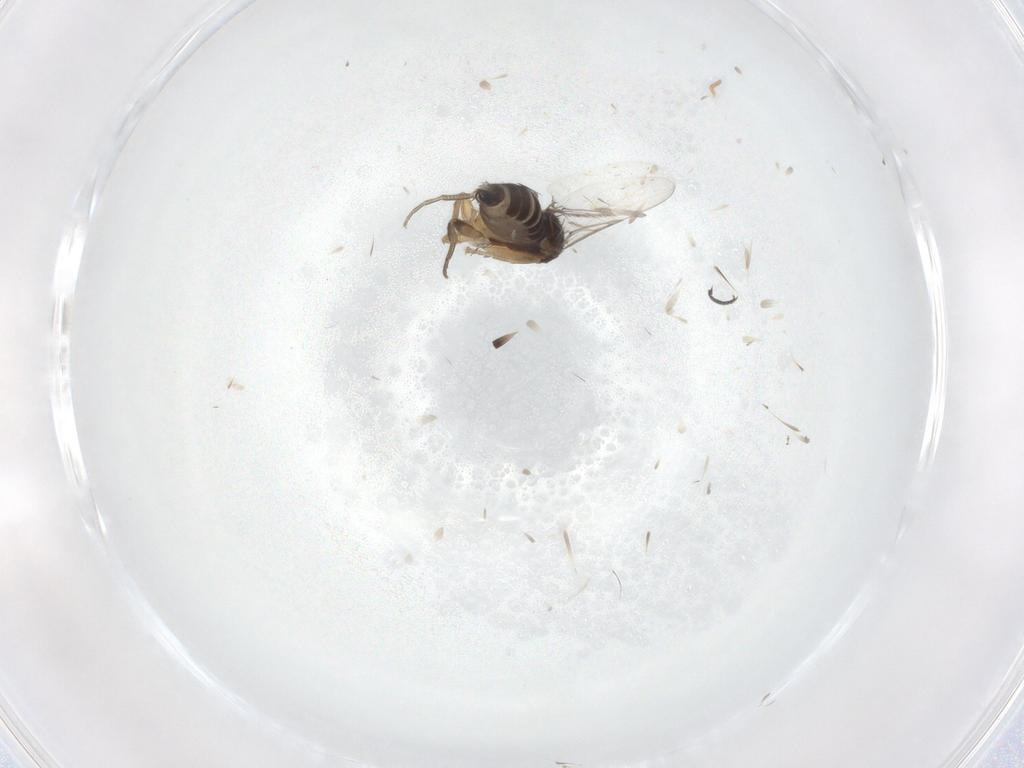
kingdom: Animalia
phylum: Arthropoda
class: Insecta
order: Diptera
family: Phoridae
